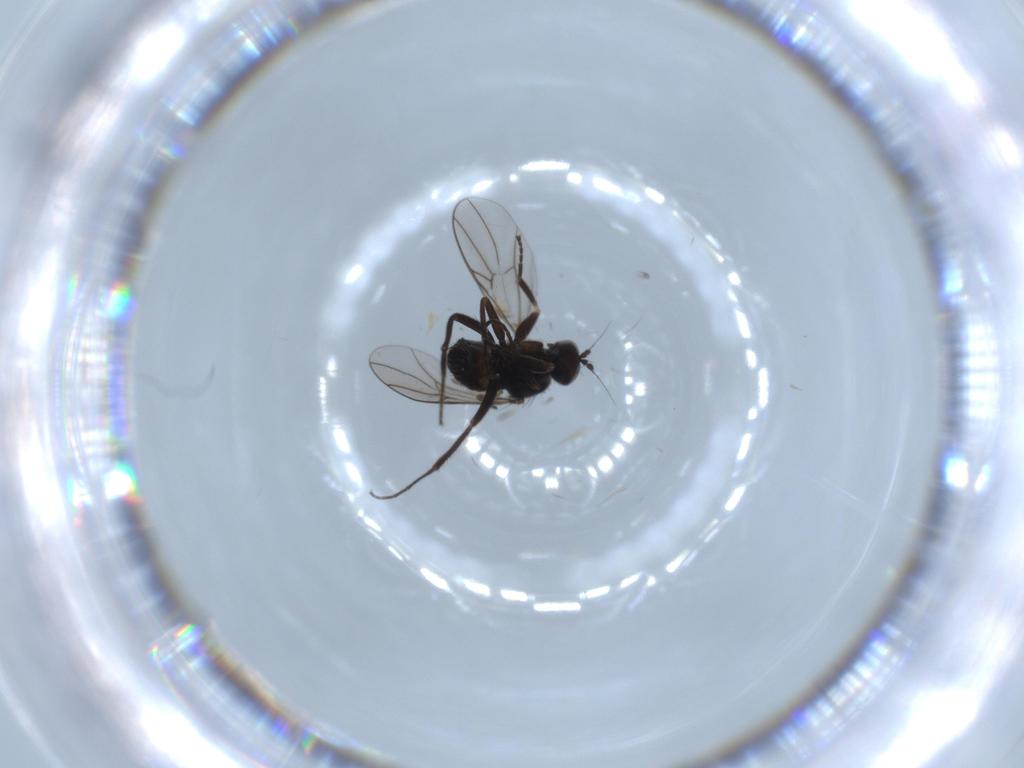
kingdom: Animalia
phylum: Arthropoda
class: Insecta
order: Diptera
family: Hybotidae
